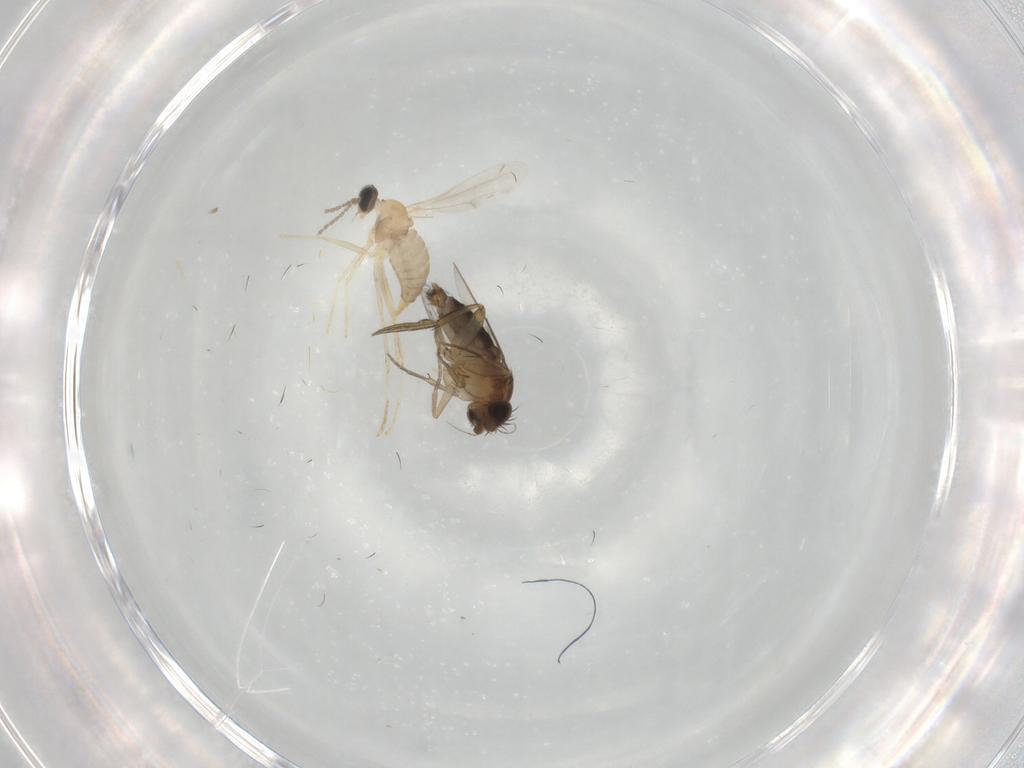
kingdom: Animalia
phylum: Arthropoda
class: Insecta
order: Diptera
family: Cecidomyiidae
